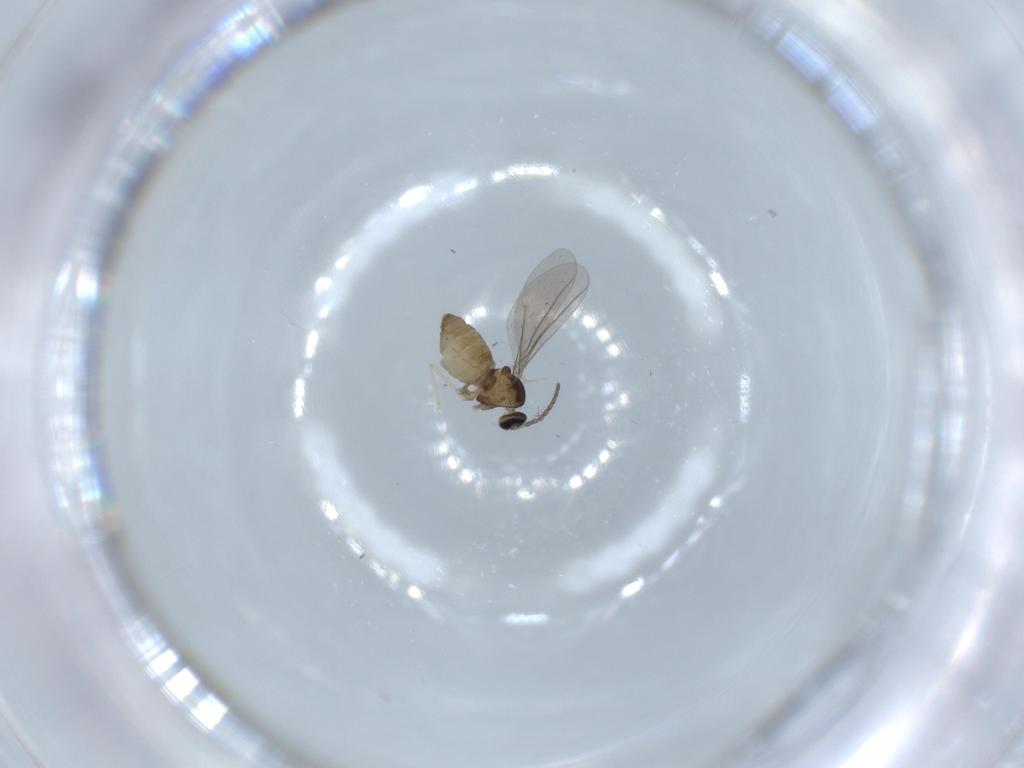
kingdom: Animalia
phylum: Arthropoda
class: Insecta
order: Diptera
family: Cecidomyiidae
